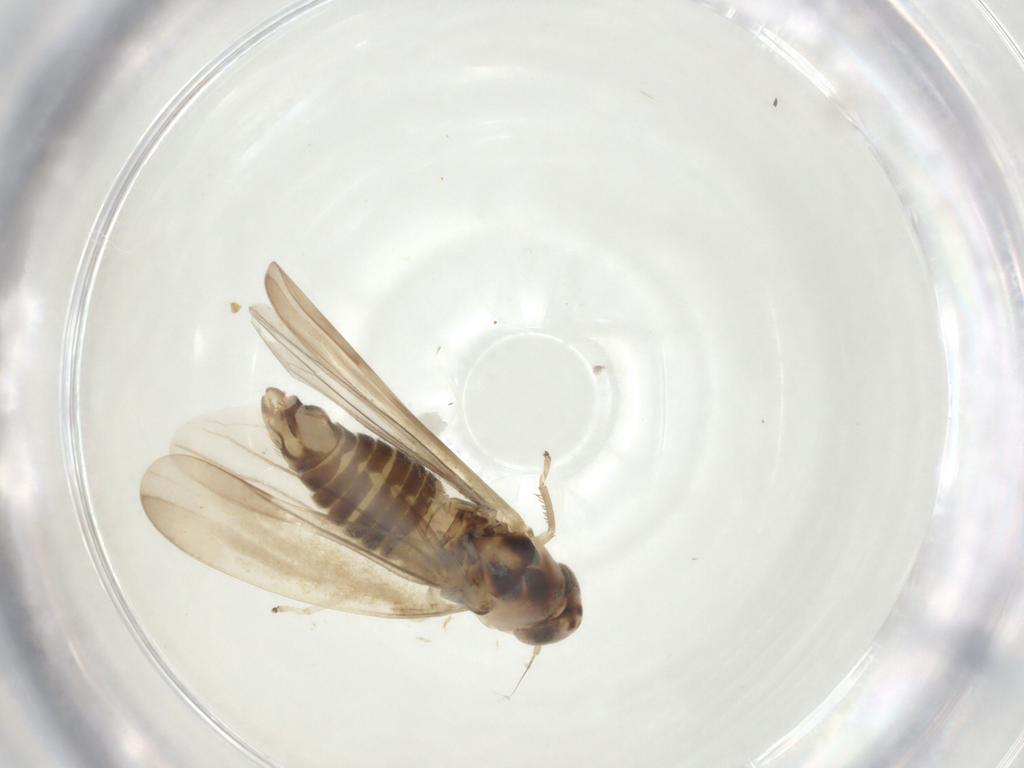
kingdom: Animalia
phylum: Arthropoda
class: Insecta
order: Hemiptera
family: Cicadellidae
